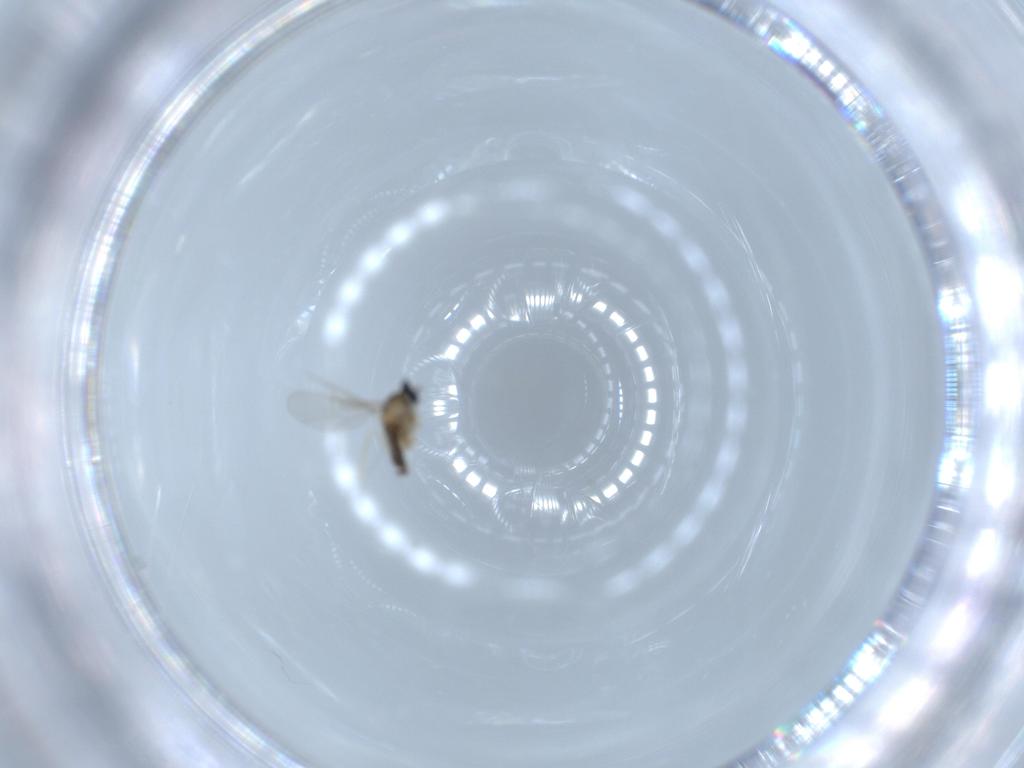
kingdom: Animalia
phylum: Arthropoda
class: Insecta
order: Diptera
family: Cecidomyiidae
